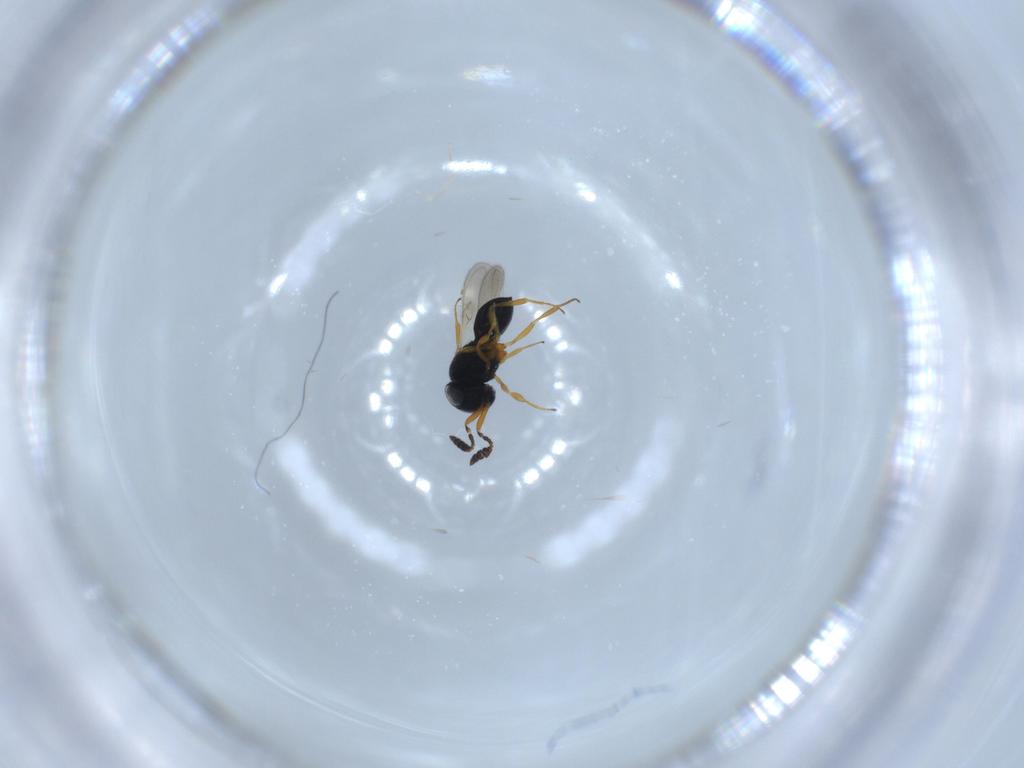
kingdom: Animalia
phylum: Arthropoda
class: Insecta
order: Hymenoptera
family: Scelionidae
